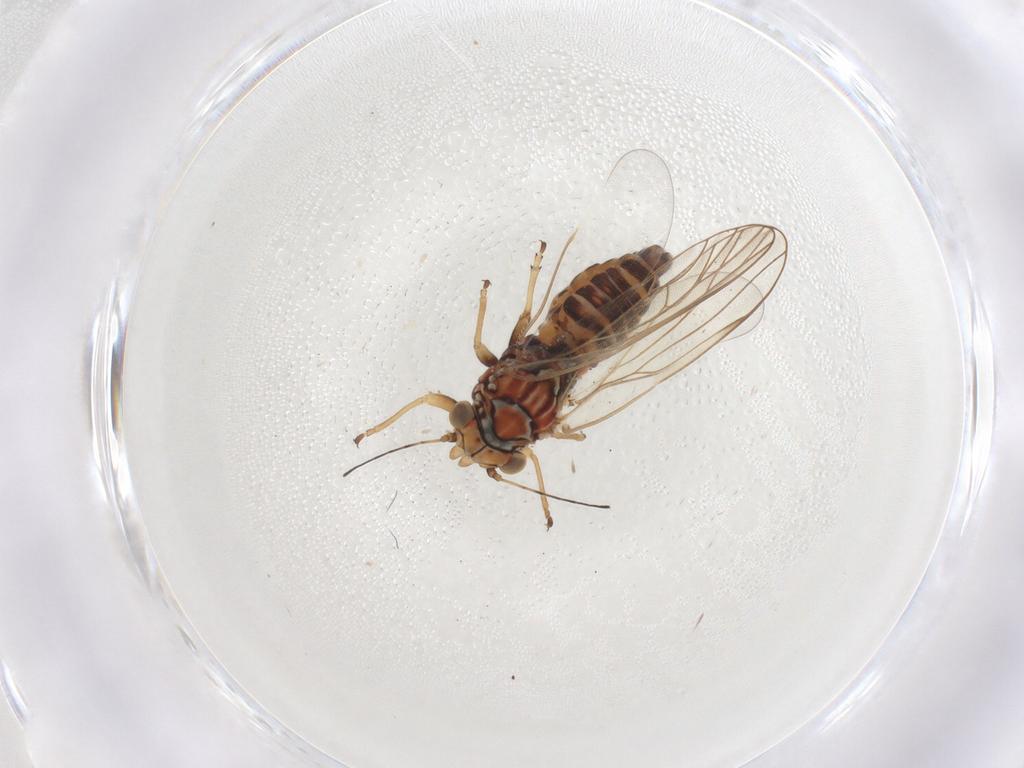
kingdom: Animalia
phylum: Arthropoda
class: Insecta
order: Hemiptera
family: Psyllidae
